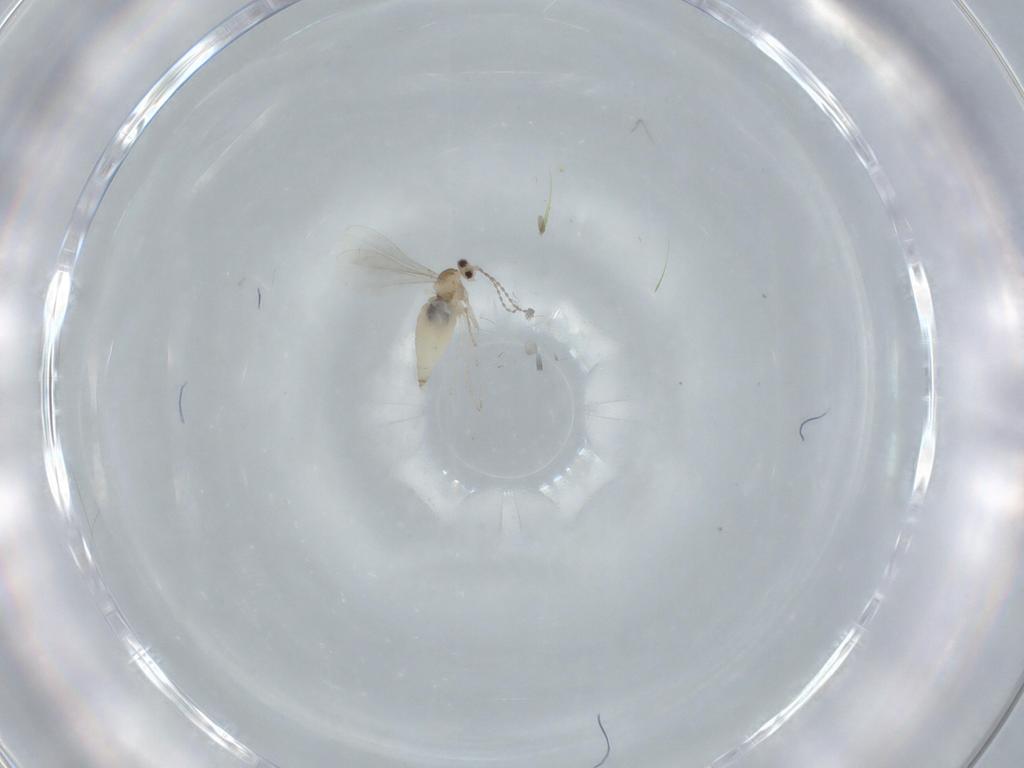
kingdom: Animalia
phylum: Arthropoda
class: Insecta
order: Diptera
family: Cecidomyiidae
